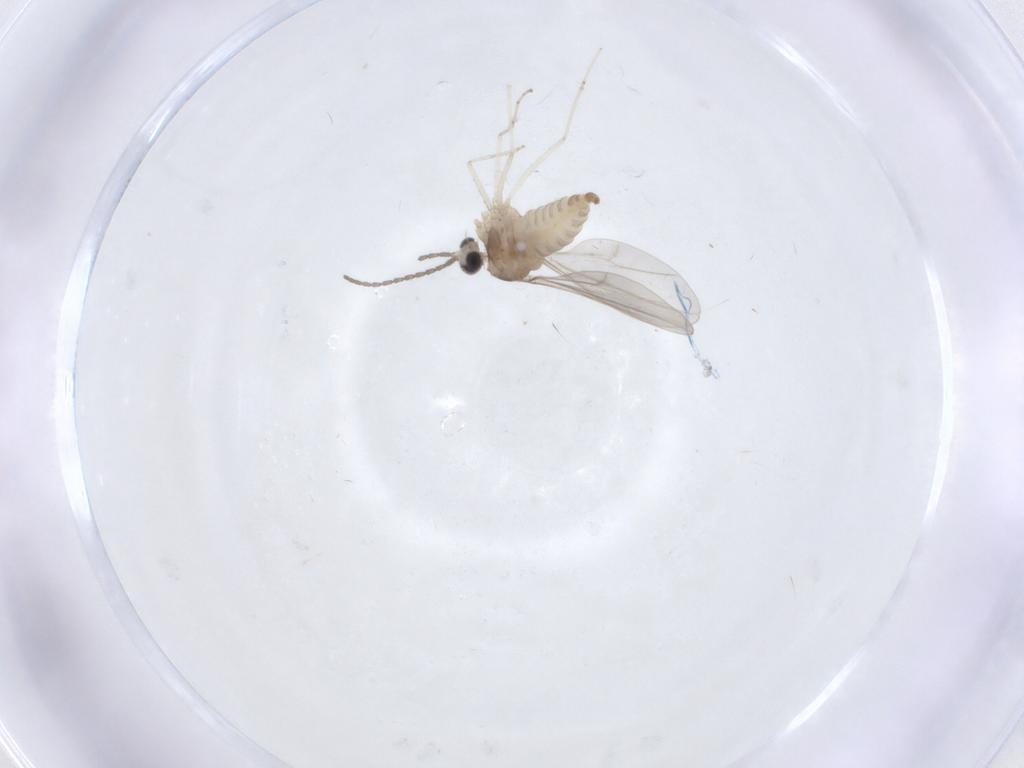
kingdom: Animalia
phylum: Arthropoda
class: Insecta
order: Diptera
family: Cecidomyiidae
